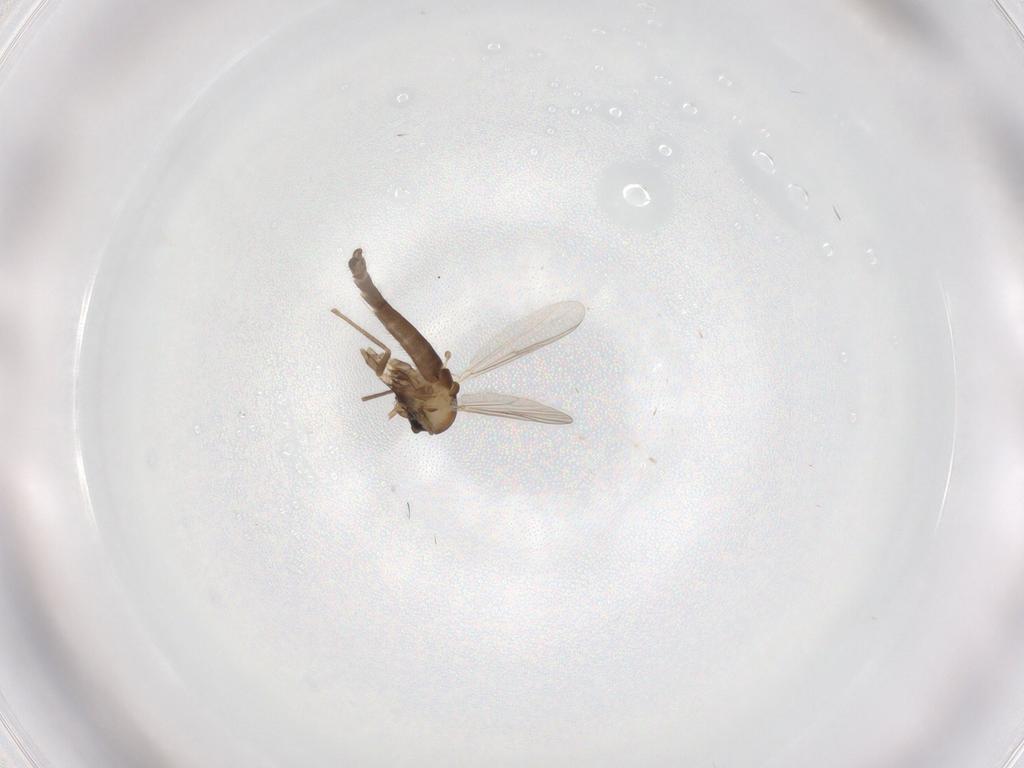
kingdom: Animalia
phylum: Arthropoda
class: Insecta
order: Diptera
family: Chironomidae
